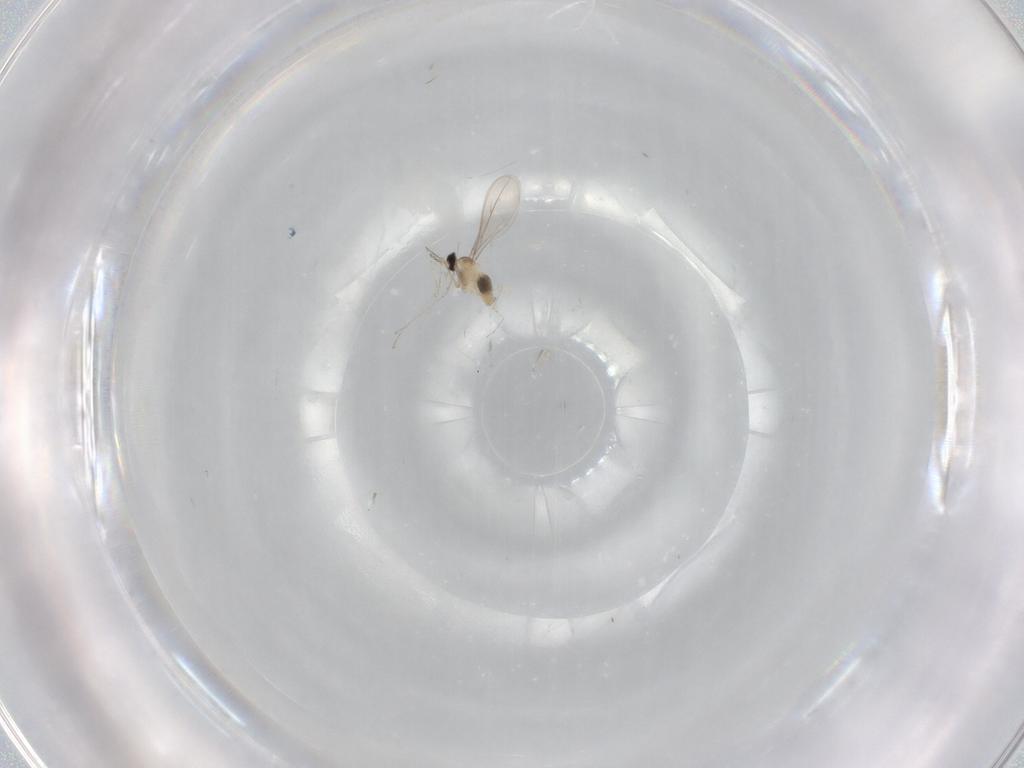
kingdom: Animalia
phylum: Arthropoda
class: Insecta
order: Diptera
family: Cecidomyiidae
